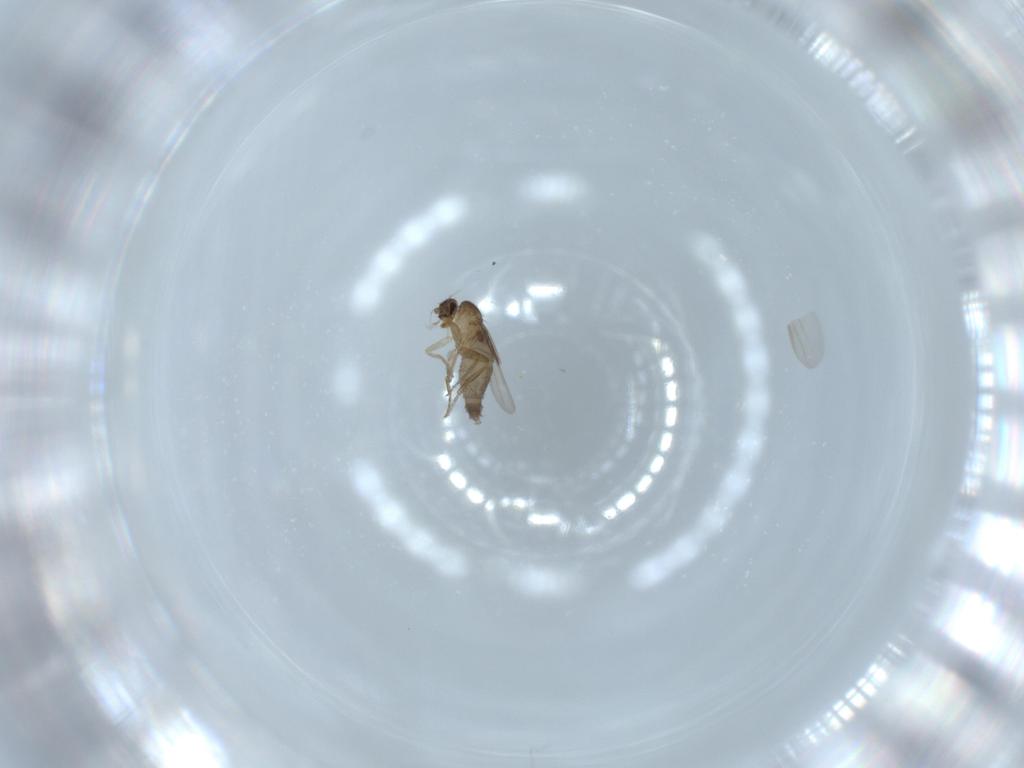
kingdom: Animalia
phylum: Arthropoda
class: Insecta
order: Diptera
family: Phoridae
